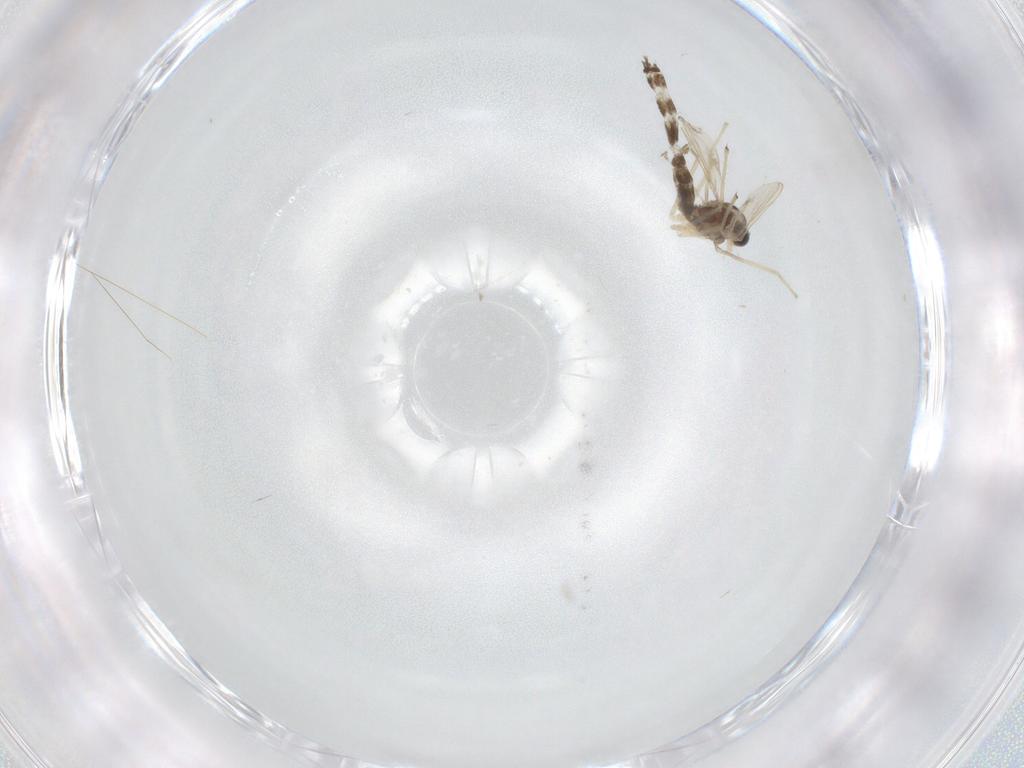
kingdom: Animalia
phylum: Arthropoda
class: Insecta
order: Diptera
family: Chironomidae
